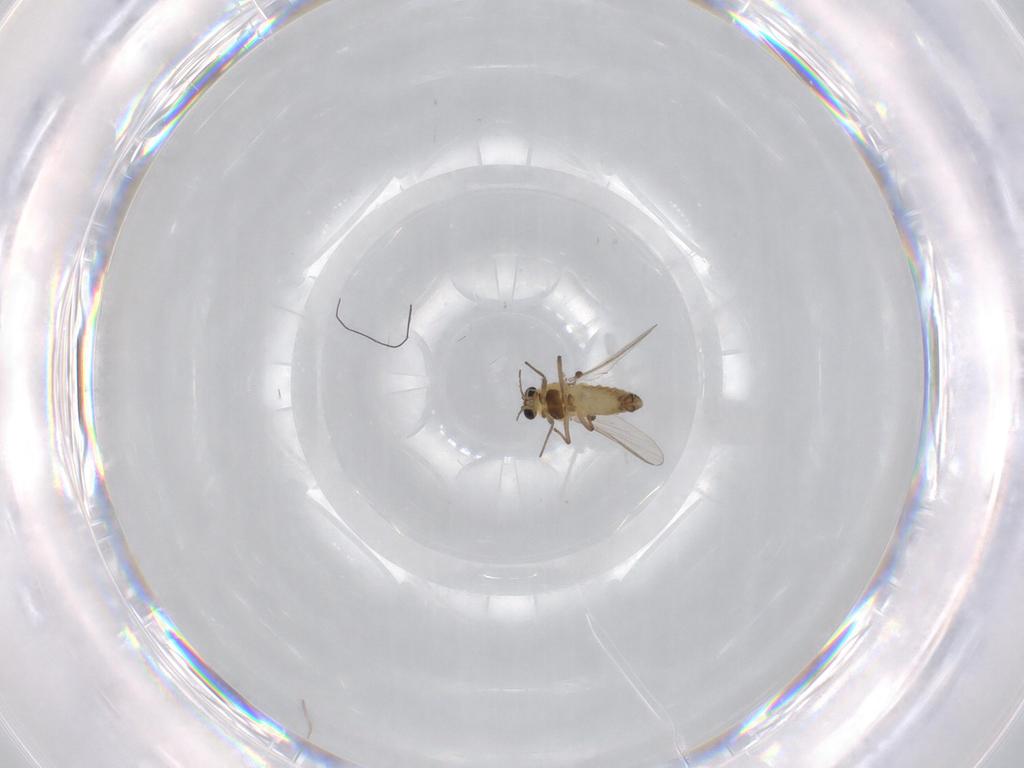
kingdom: Animalia
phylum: Arthropoda
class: Insecta
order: Diptera
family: Chironomidae
